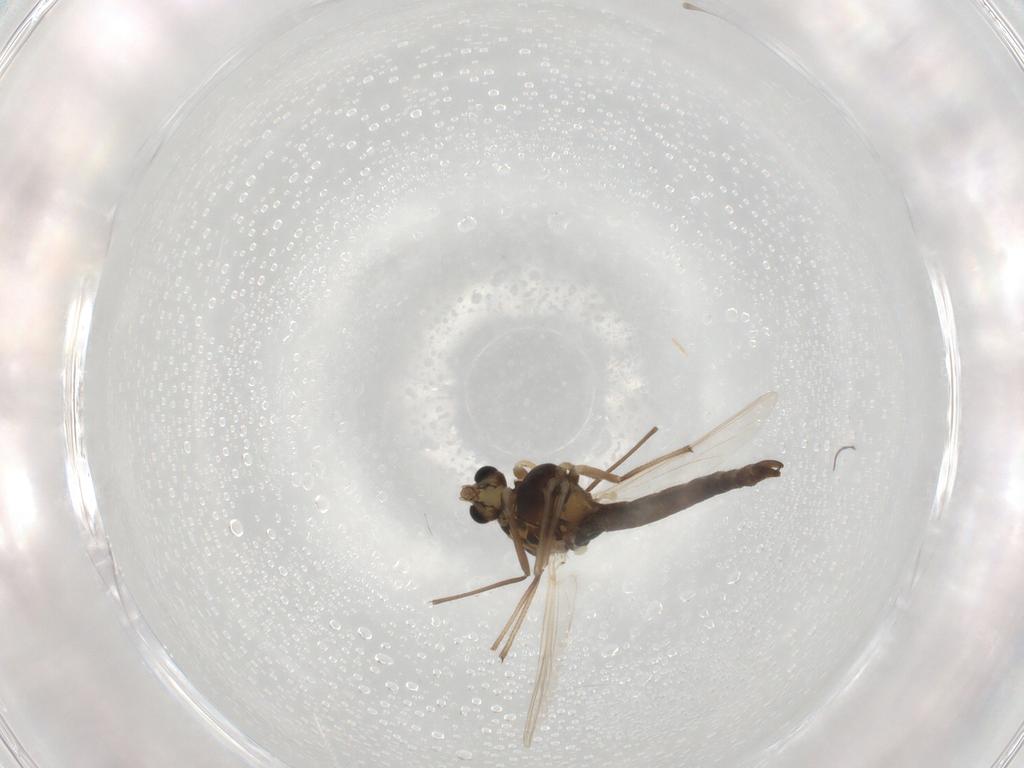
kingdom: Animalia
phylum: Arthropoda
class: Insecta
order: Diptera
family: Chironomidae
